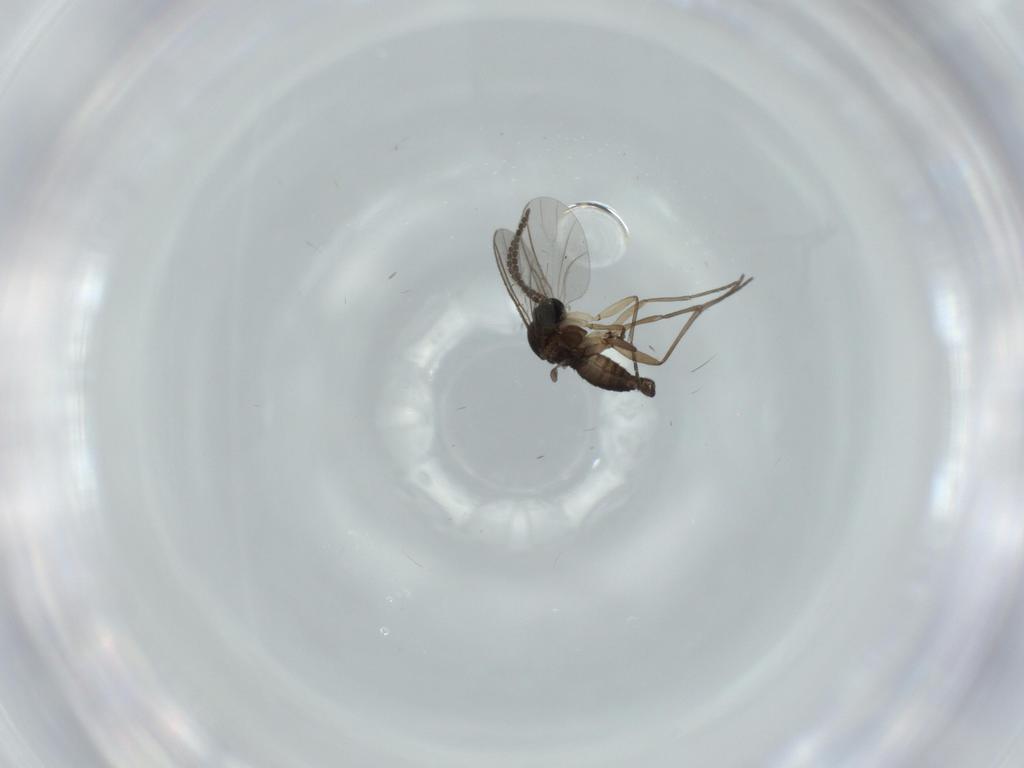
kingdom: Animalia
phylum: Arthropoda
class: Insecta
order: Diptera
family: Sciaridae
